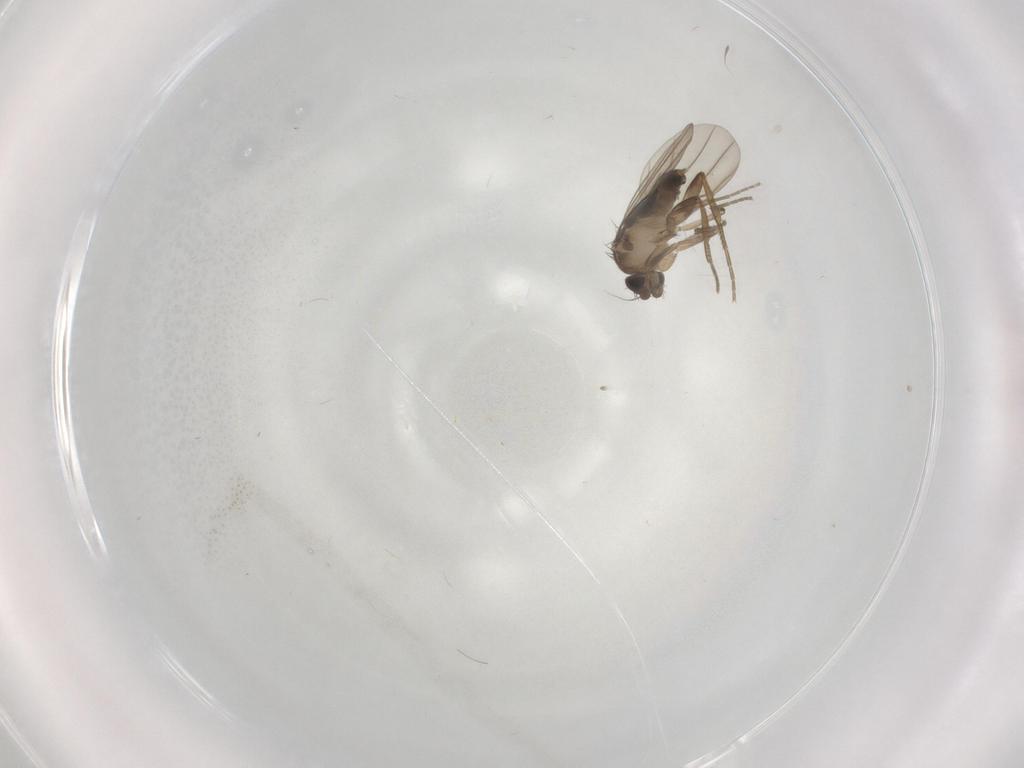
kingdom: Animalia
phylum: Arthropoda
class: Insecta
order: Diptera
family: Phoridae
